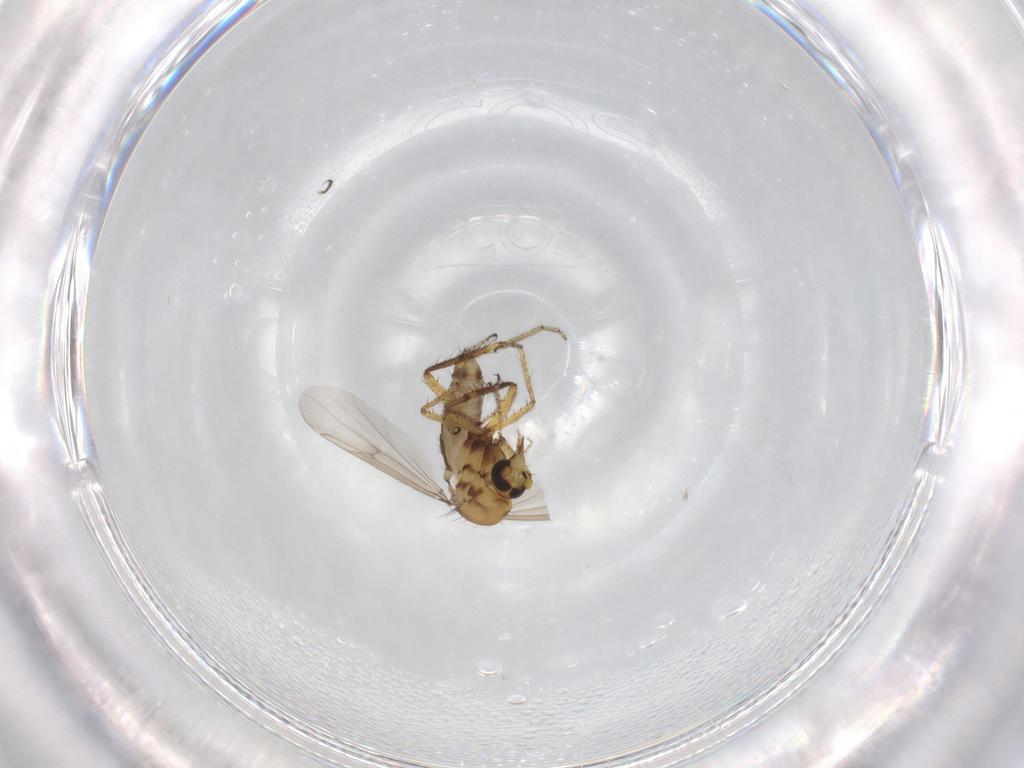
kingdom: Animalia
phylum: Arthropoda
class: Insecta
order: Diptera
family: Ceratopogonidae
